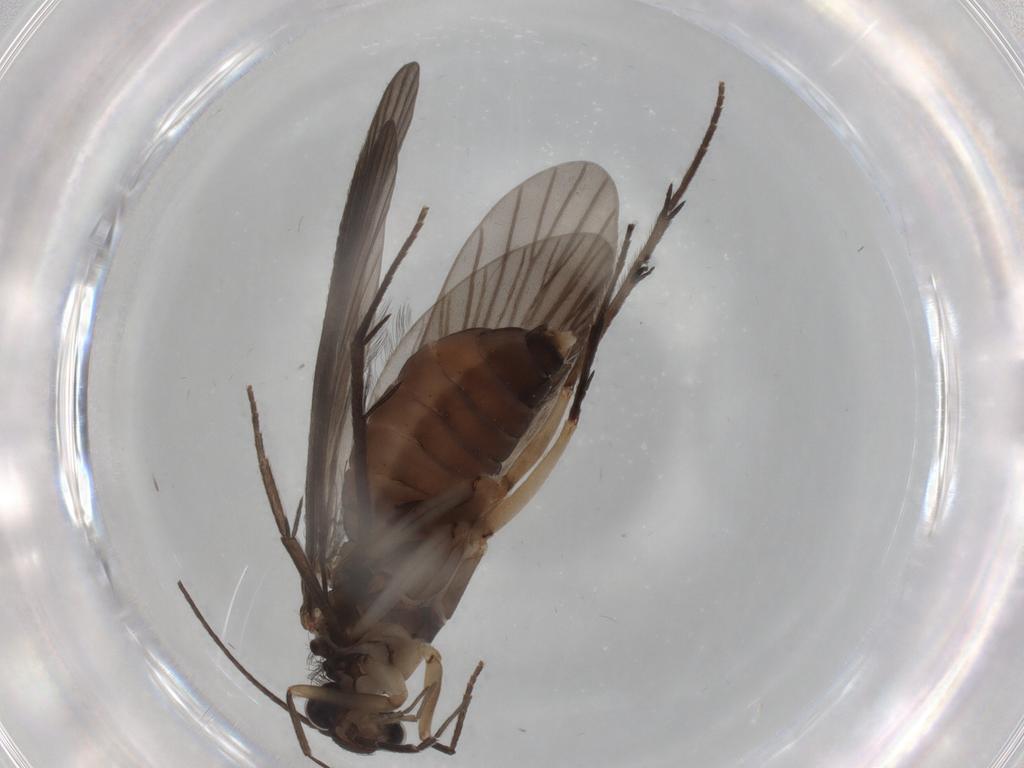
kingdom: Animalia
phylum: Arthropoda
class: Insecta
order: Trichoptera
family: Philopotamidae
